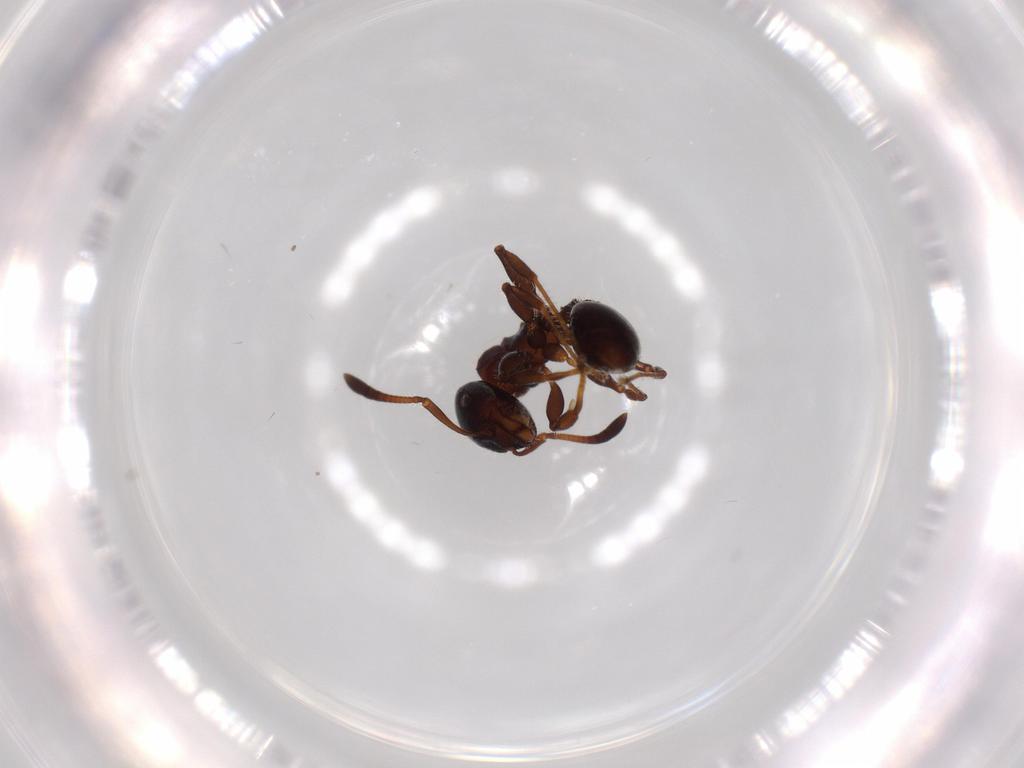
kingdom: Animalia
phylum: Arthropoda
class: Insecta
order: Hymenoptera
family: Formicidae
